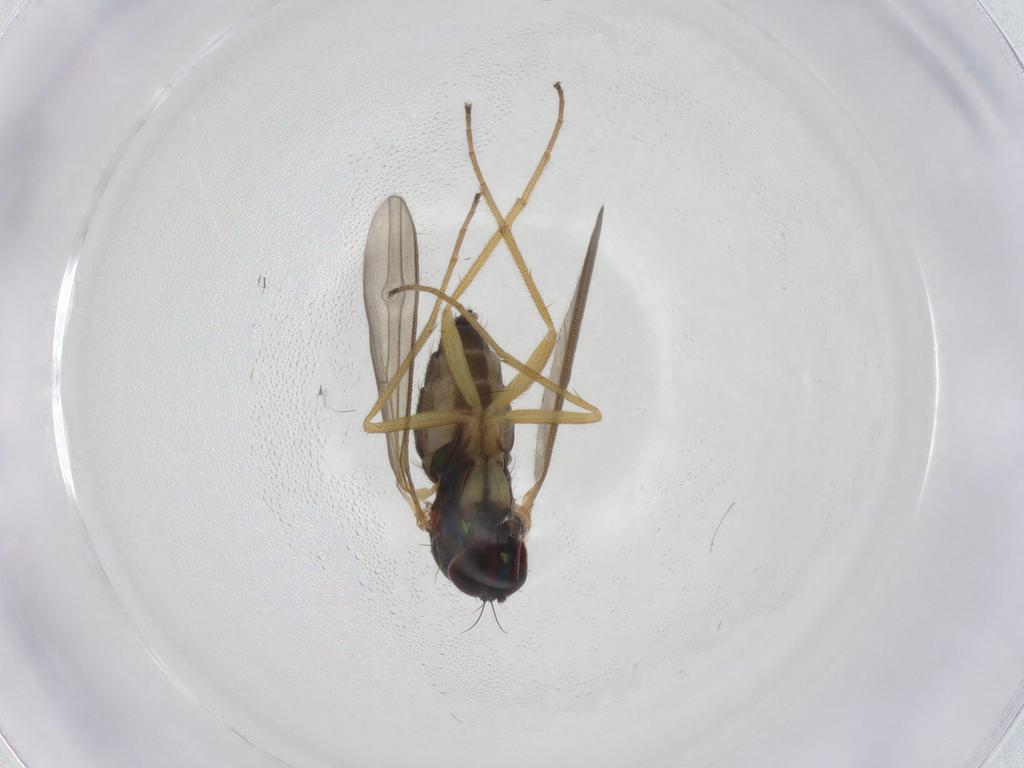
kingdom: Animalia
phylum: Arthropoda
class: Insecta
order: Diptera
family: Dolichopodidae
